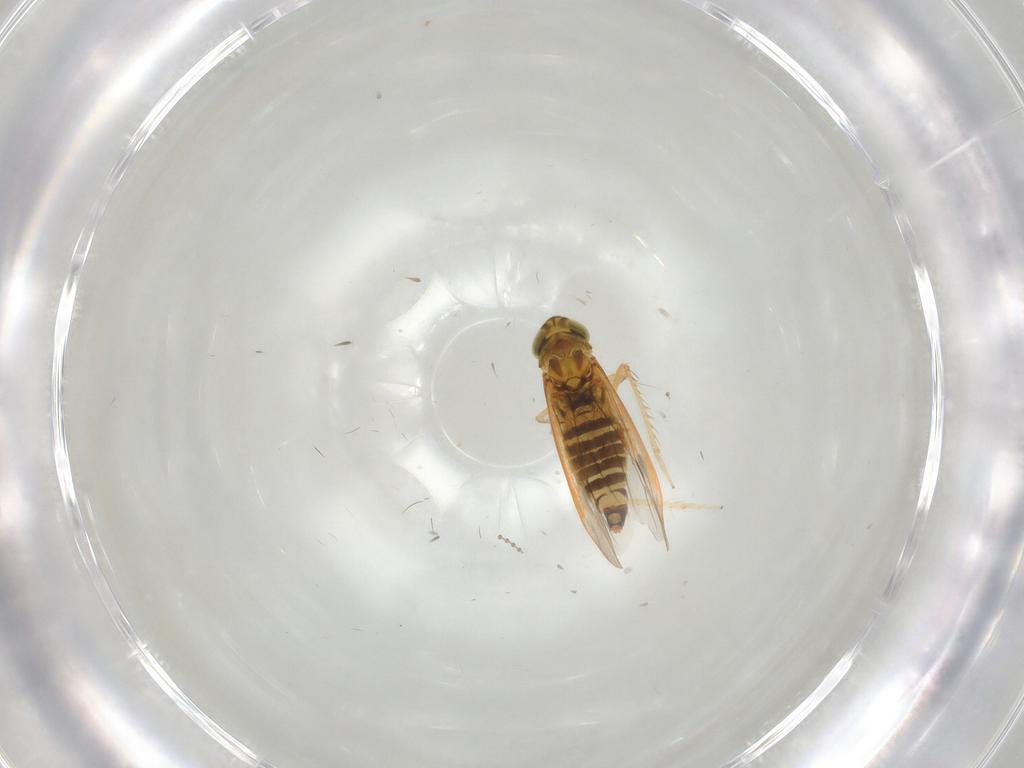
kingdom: Animalia
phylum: Arthropoda
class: Insecta
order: Hemiptera
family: Cicadellidae
